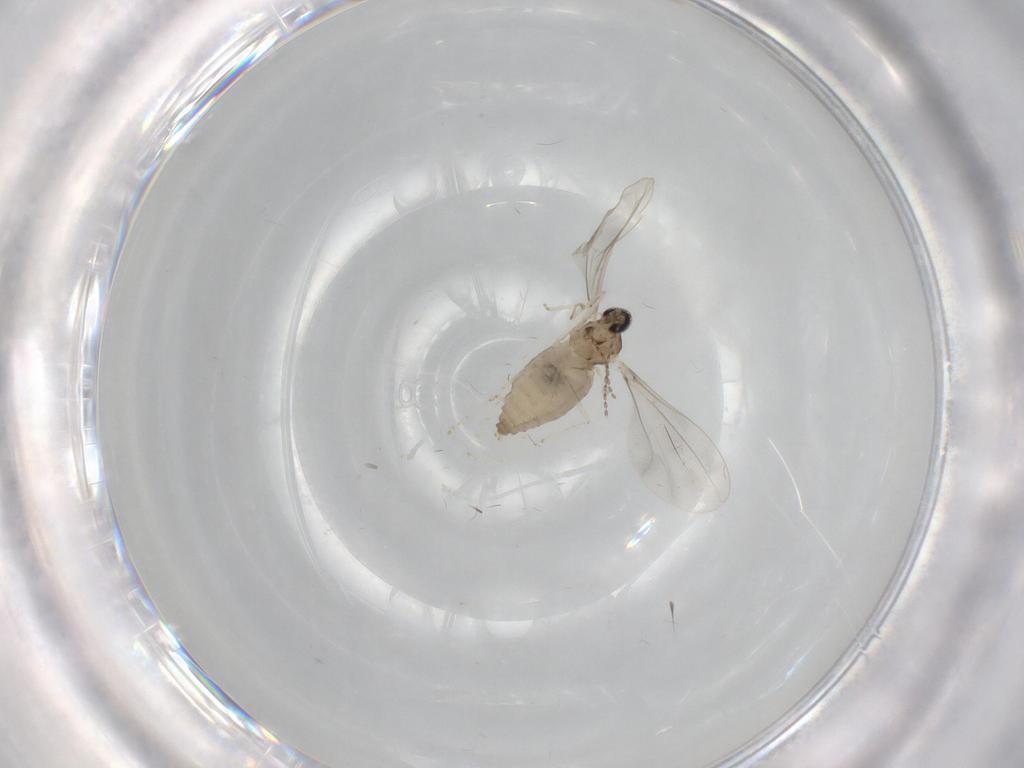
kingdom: Animalia
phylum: Arthropoda
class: Insecta
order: Diptera
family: Cecidomyiidae
